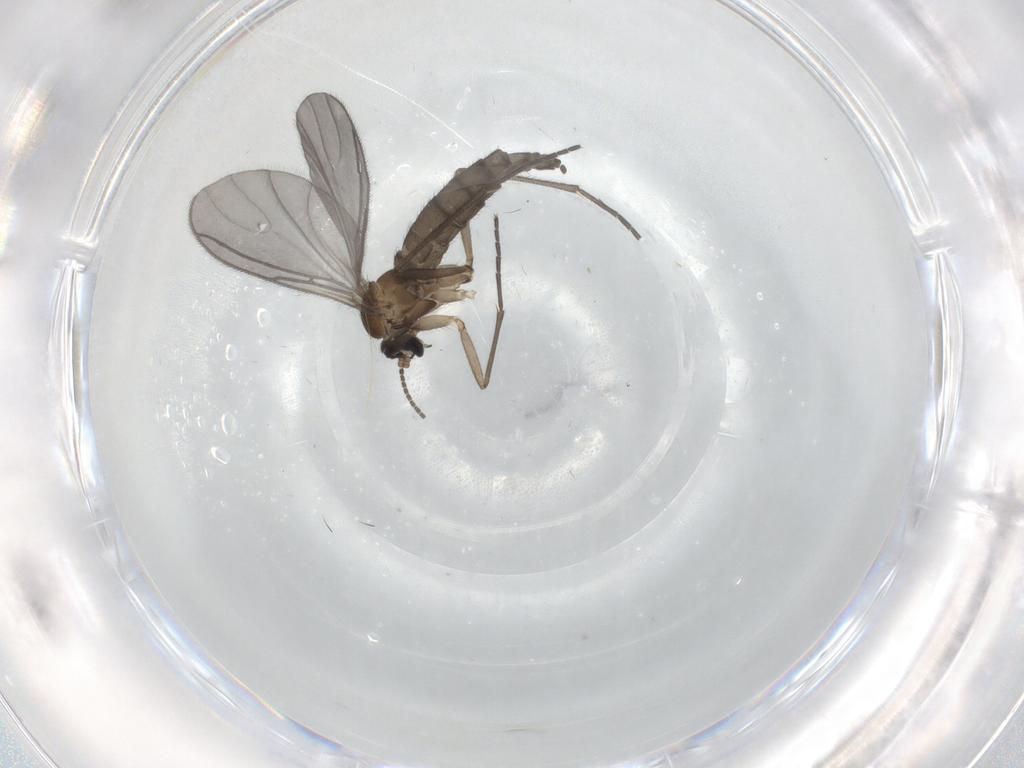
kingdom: Animalia
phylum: Arthropoda
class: Insecta
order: Diptera
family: Sciaridae
